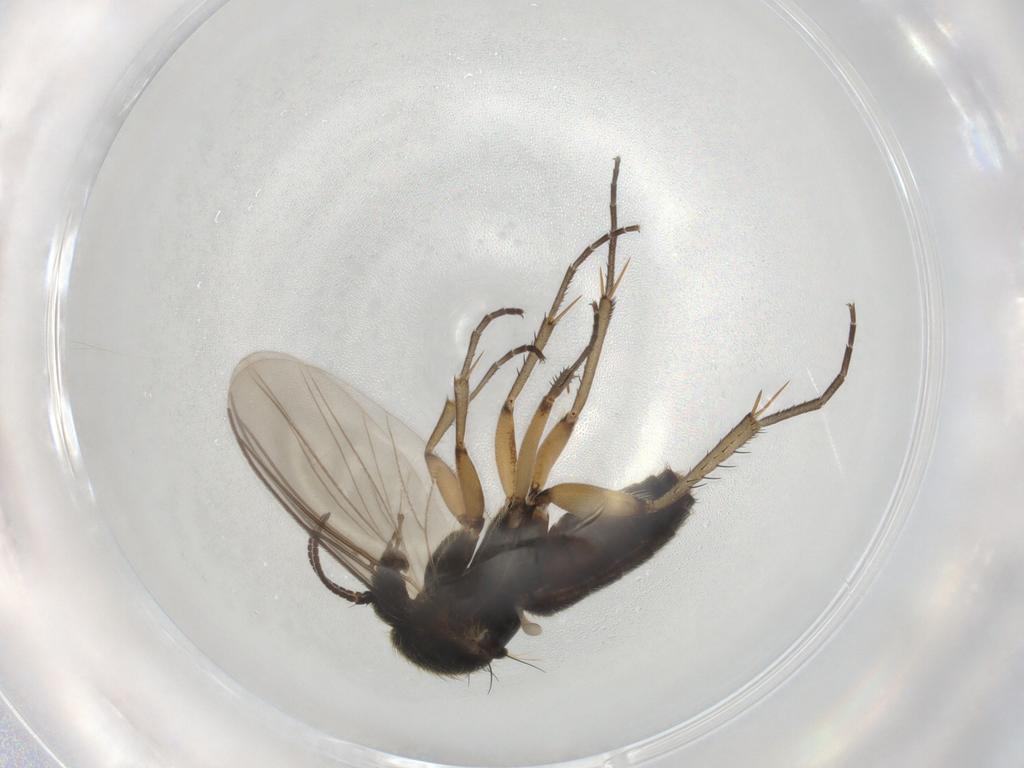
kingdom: Animalia
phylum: Arthropoda
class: Insecta
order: Diptera
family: Mycetophilidae
